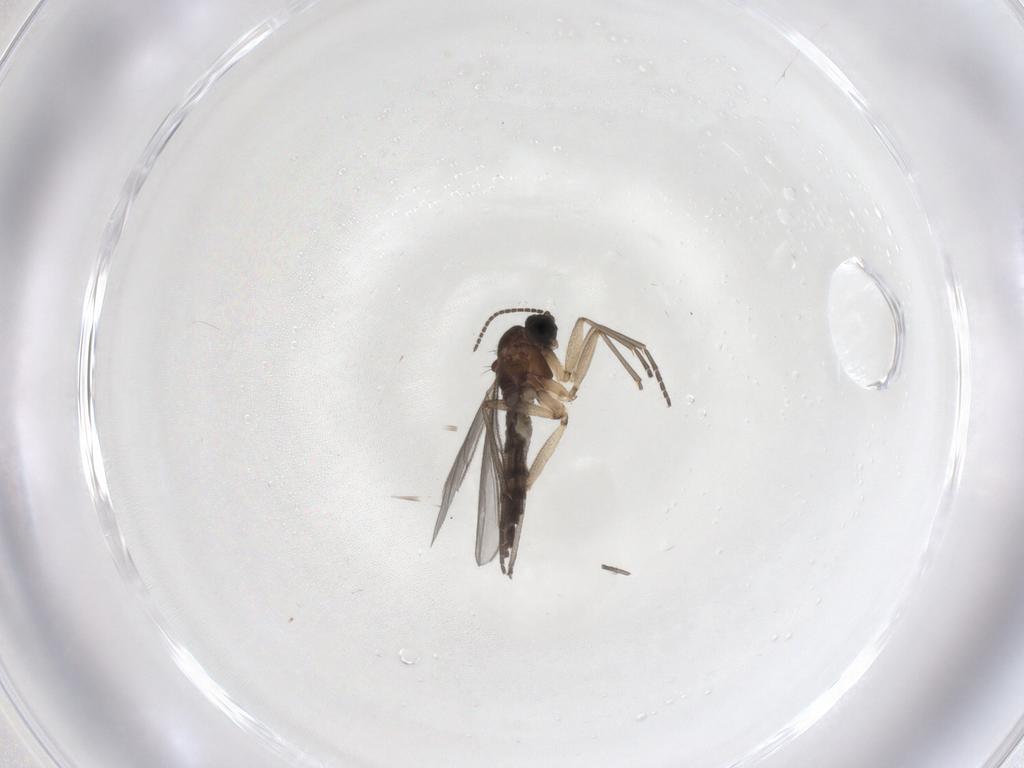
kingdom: Animalia
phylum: Arthropoda
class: Insecta
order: Diptera
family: Sciaridae
